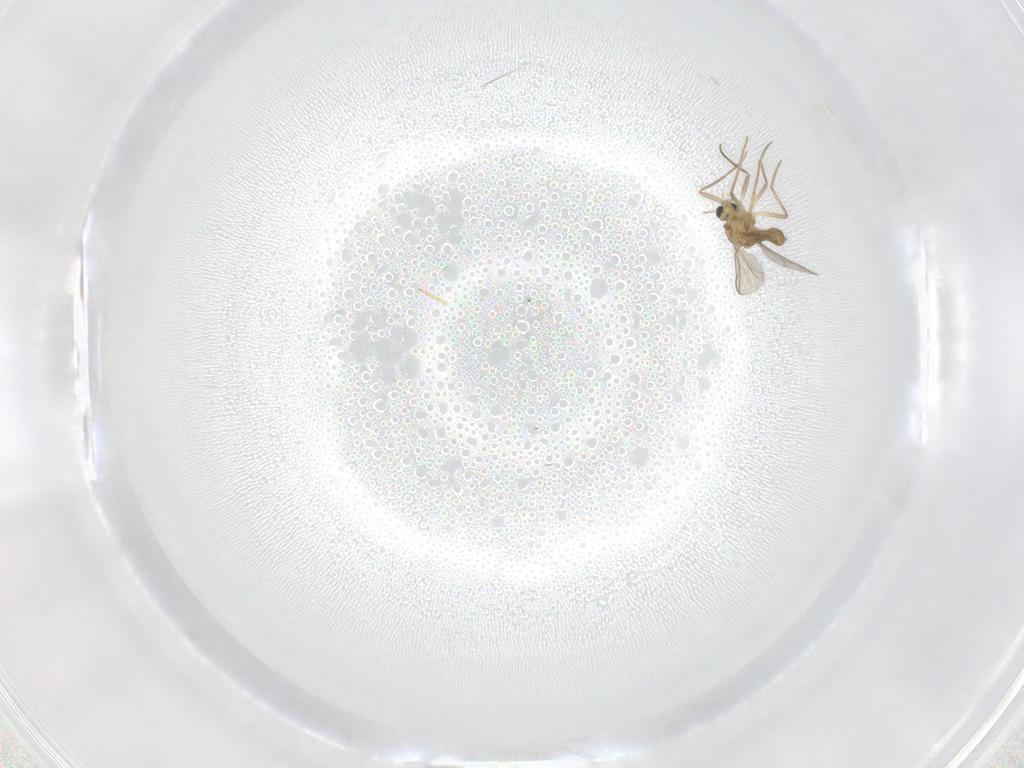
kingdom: Animalia
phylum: Arthropoda
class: Insecta
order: Diptera
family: Chironomidae
